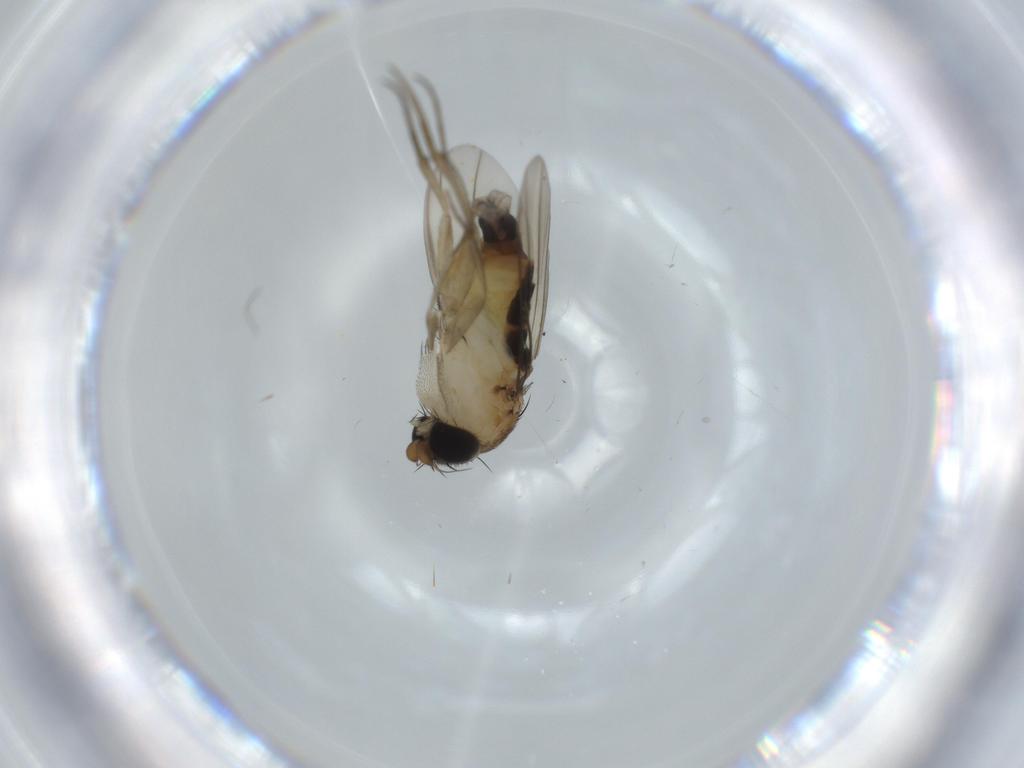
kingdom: Animalia
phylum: Arthropoda
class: Insecta
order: Diptera
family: Phoridae
